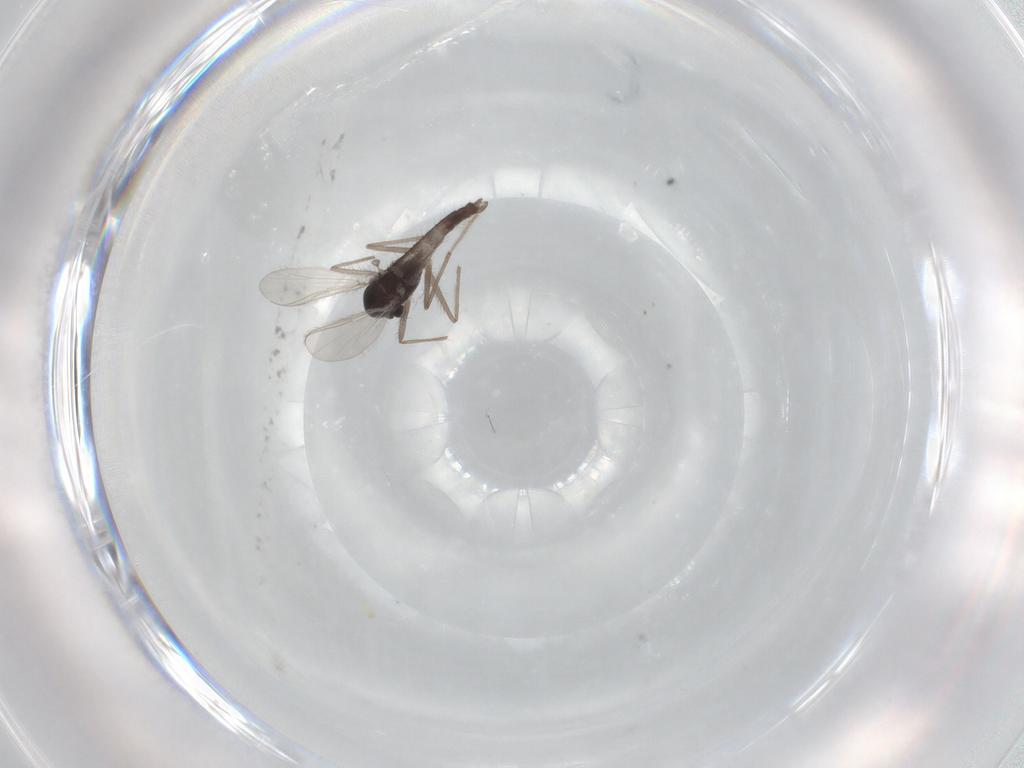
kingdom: Animalia
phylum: Arthropoda
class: Insecta
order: Diptera
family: Chironomidae
